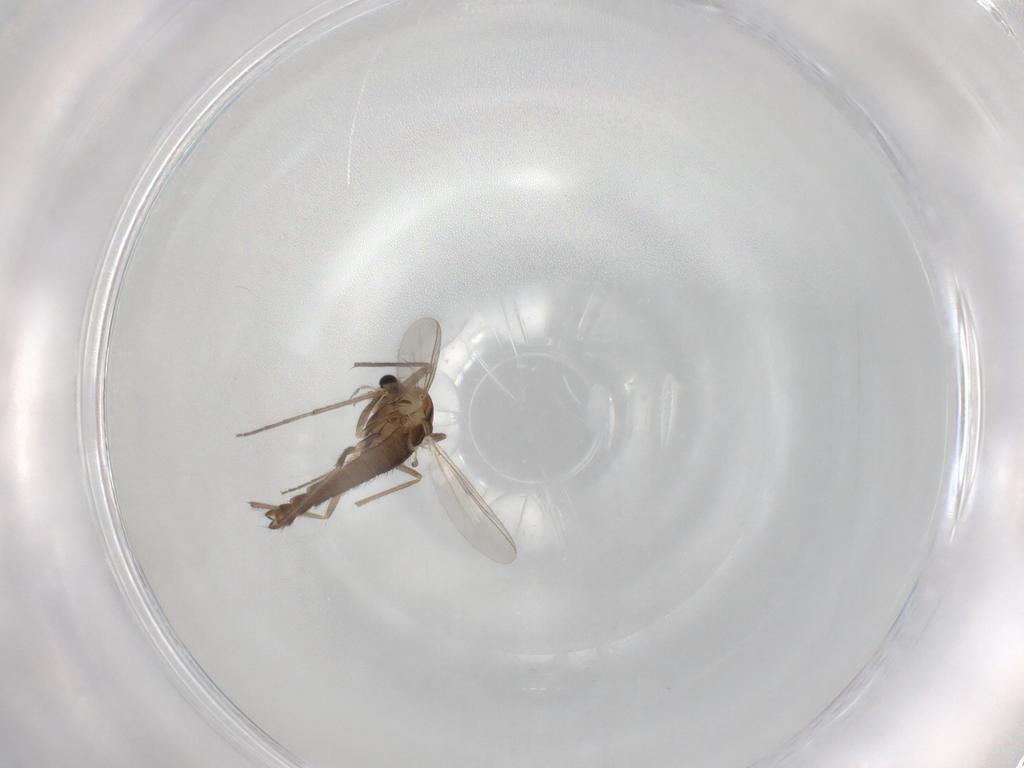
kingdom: Animalia
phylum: Arthropoda
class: Insecta
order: Diptera
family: Chironomidae
